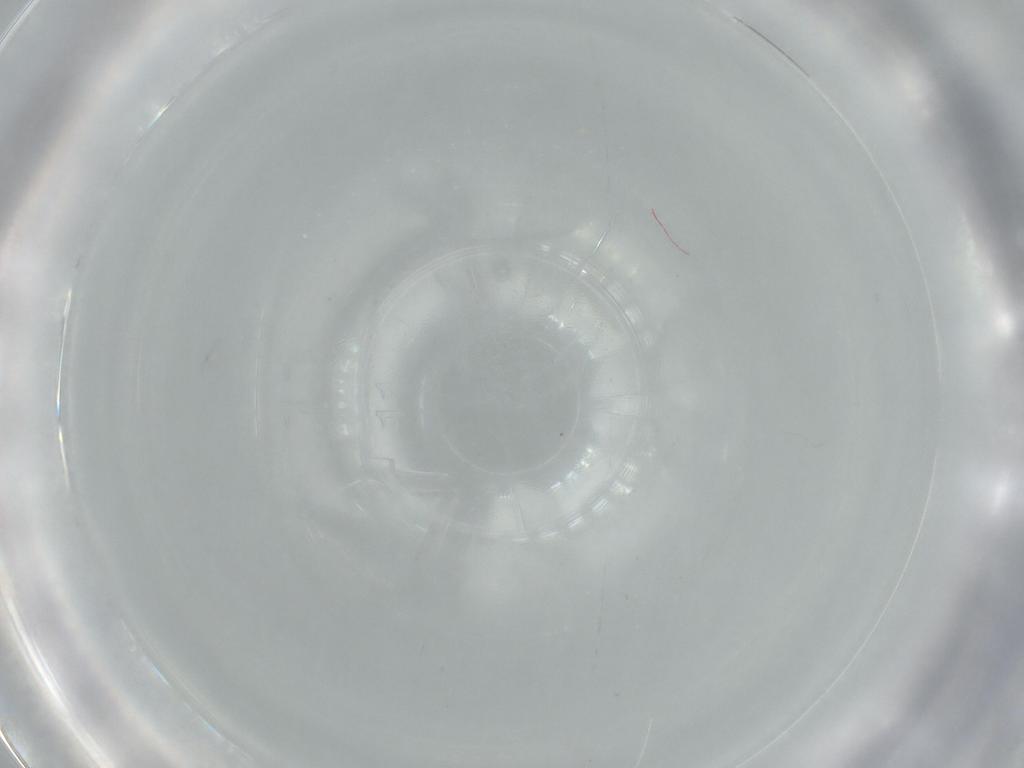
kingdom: Animalia
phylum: Arthropoda
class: Insecta
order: Diptera
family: Sciaridae
